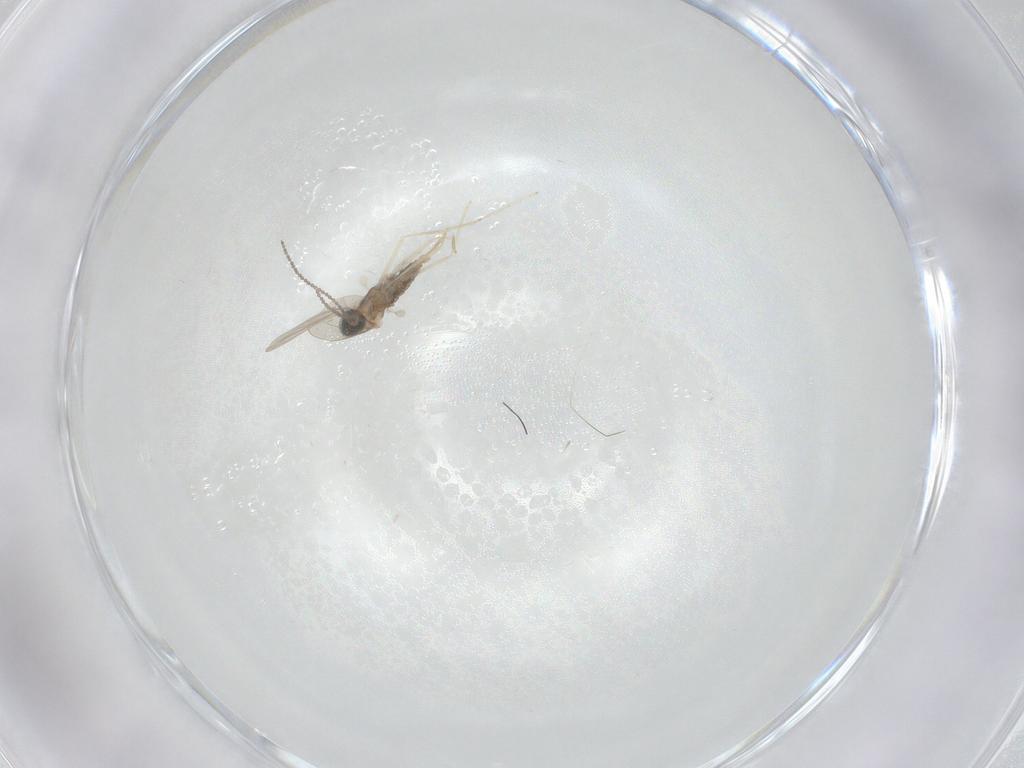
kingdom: Animalia
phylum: Arthropoda
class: Insecta
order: Diptera
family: Cecidomyiidae
